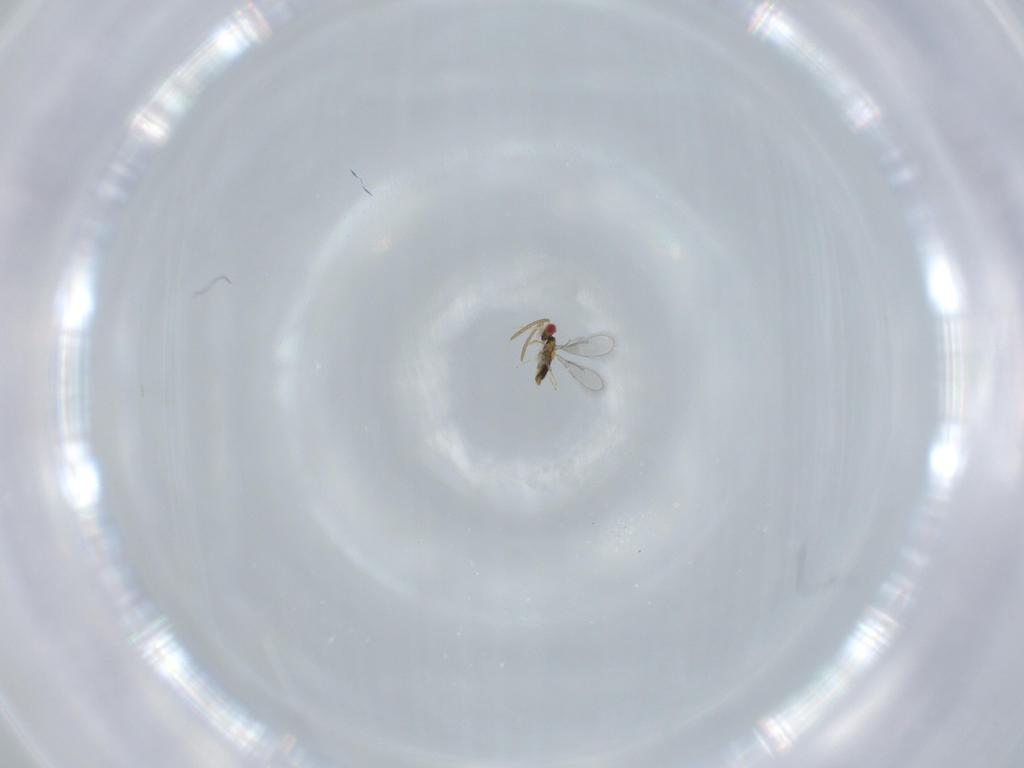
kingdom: Animalia
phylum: Arthropoda
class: Insecta
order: Hymenoptera
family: Aphelinidae
